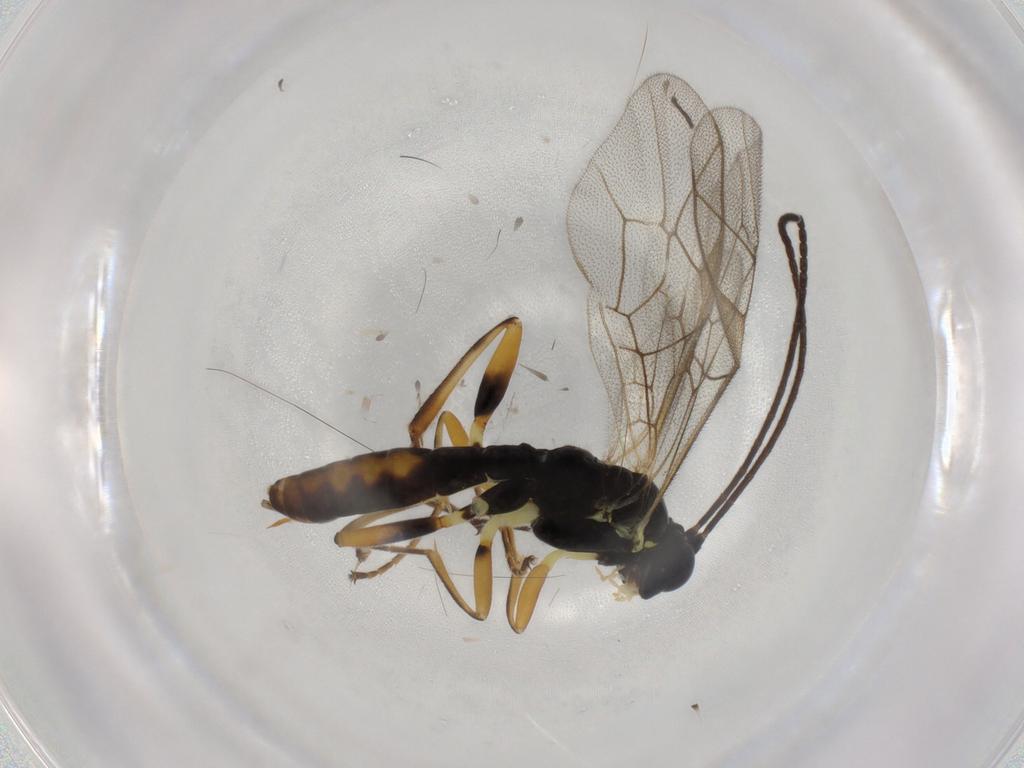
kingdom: Animalia
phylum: Arthropoda
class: Insecta
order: Hymenoptera
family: Ichneumonidae
